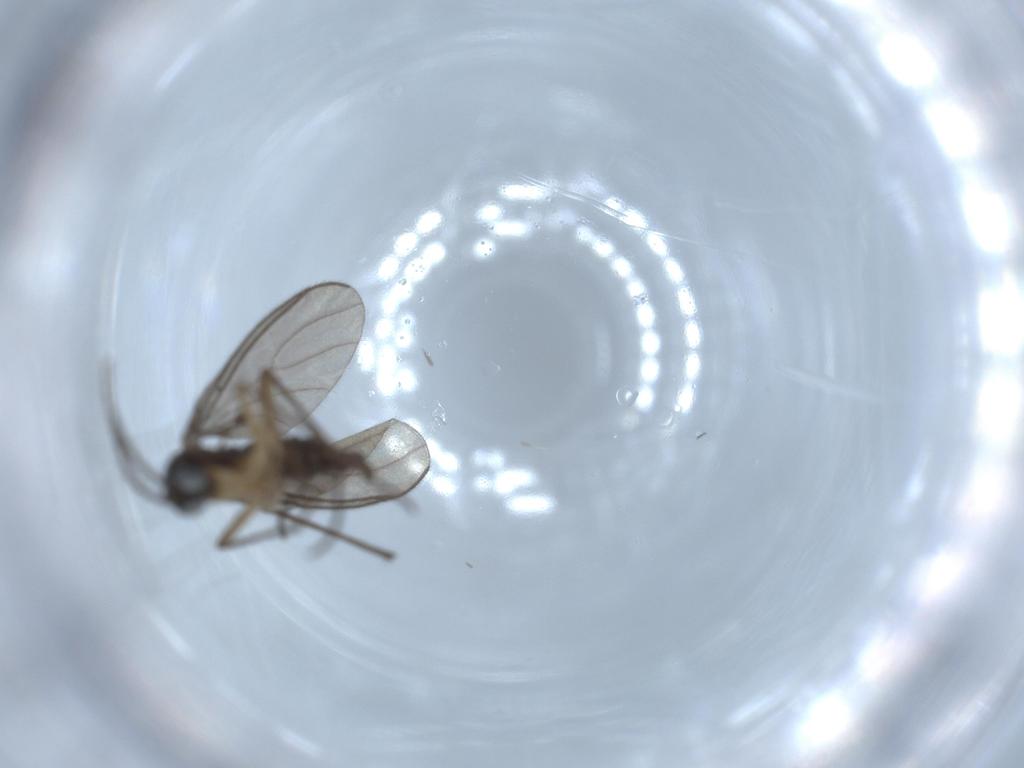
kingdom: Animalia
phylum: Arthropoda
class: Insecta
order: Diptera
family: Sciaridae
